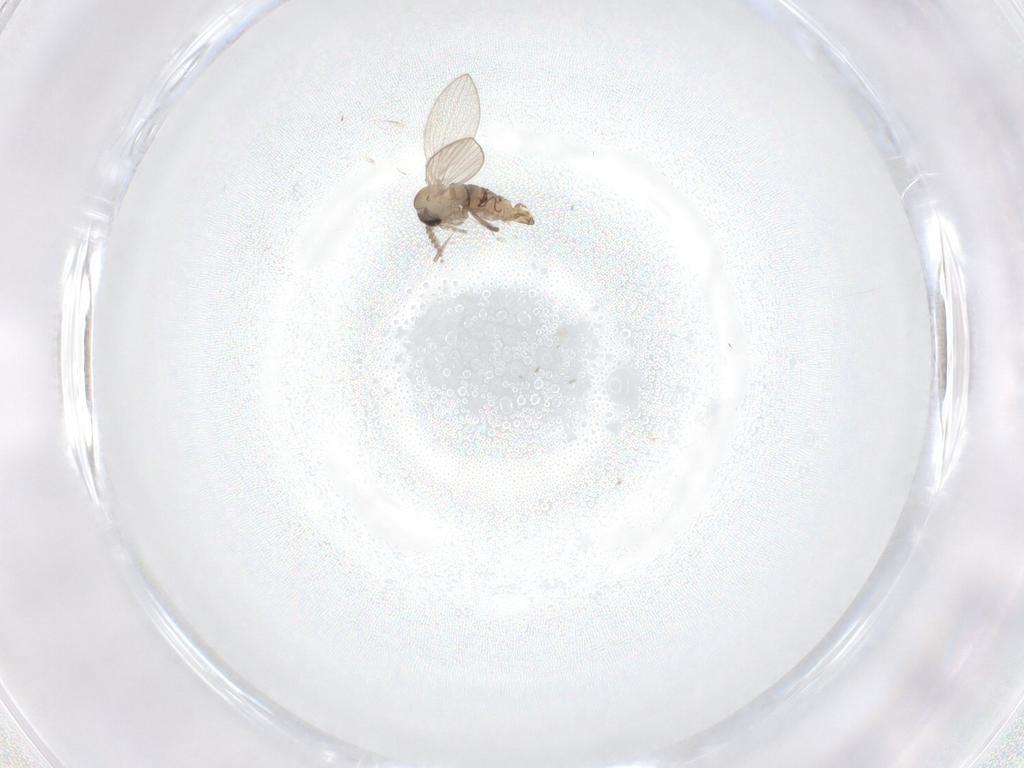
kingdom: Animalia
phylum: Arthropoda
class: Insecta
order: Diptera
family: Psychodidae
